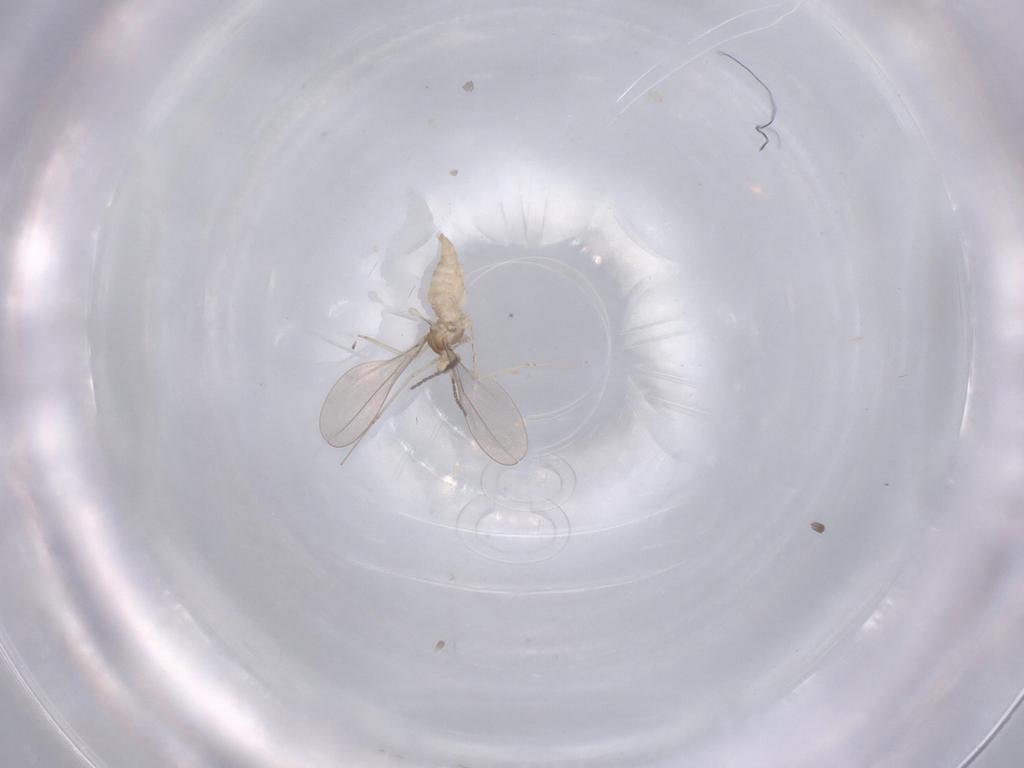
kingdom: Animalia
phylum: Arthropoda
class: Insecta
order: Diptera
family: Cecidomyiidae
